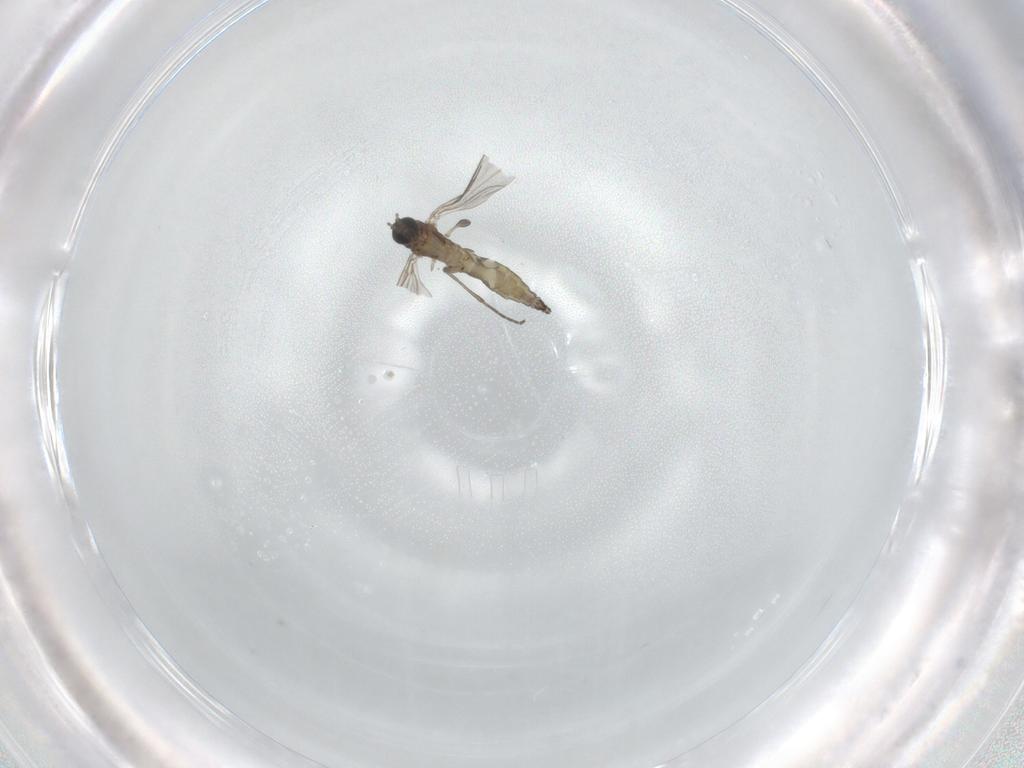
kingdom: Animalia
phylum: Arthropoda
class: Insecta
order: Diptera
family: Sciaridae
